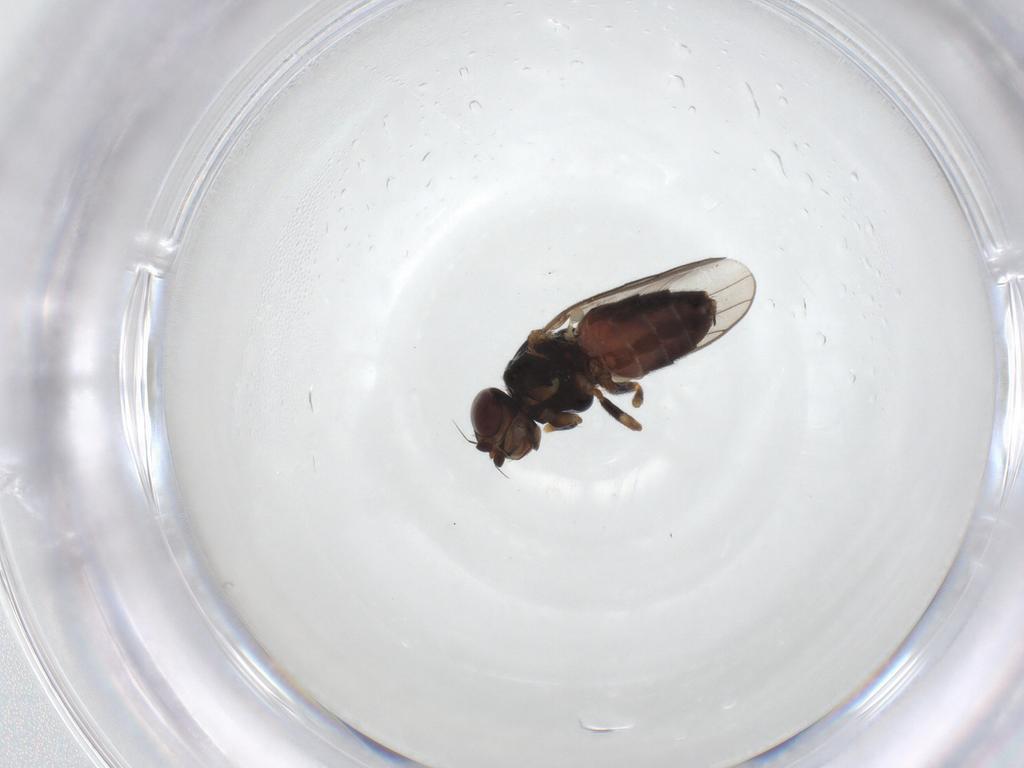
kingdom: Animalia
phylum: Arthropoda
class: Insecta
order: Diptera
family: Chloropidae
